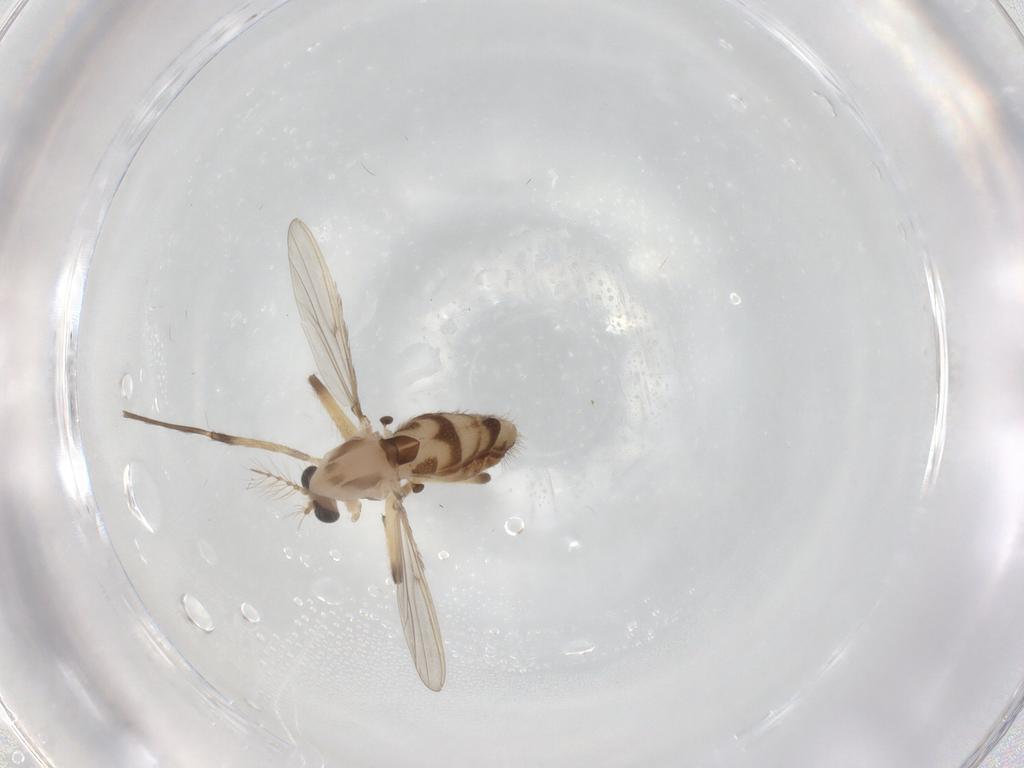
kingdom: Animalia
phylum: Arthropoda
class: Insecta
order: Diptera
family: Chironomidae
